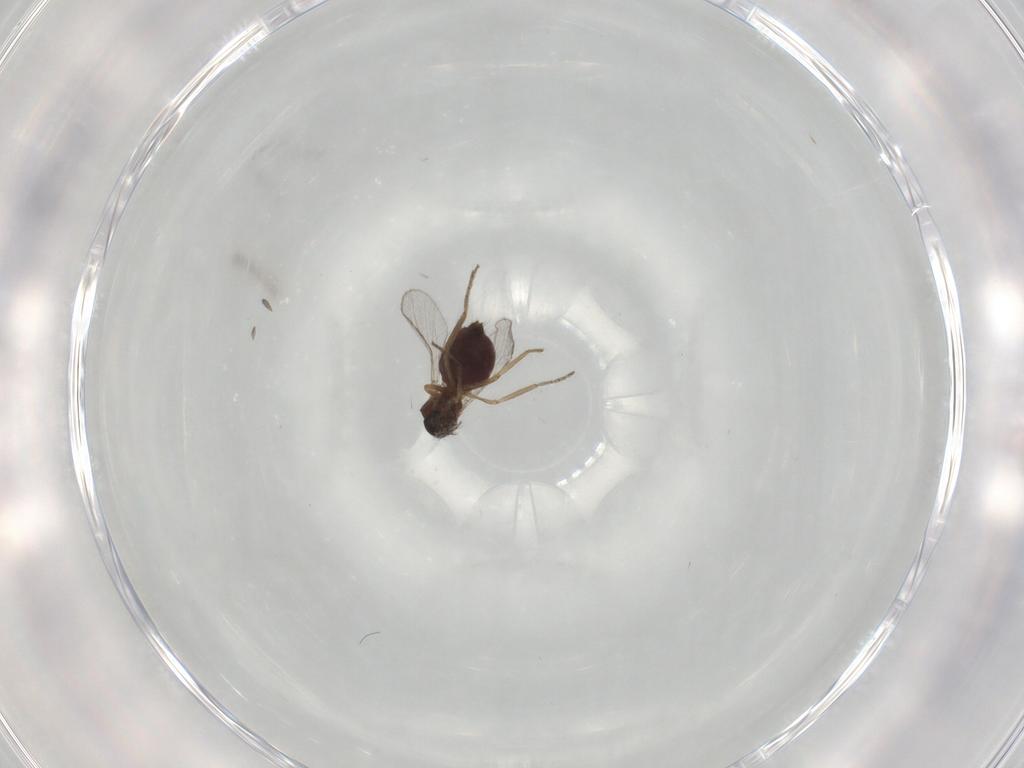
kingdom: Animalia
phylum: Arthropoda
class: Insecta
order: Diptera
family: Ceratopogonidae
